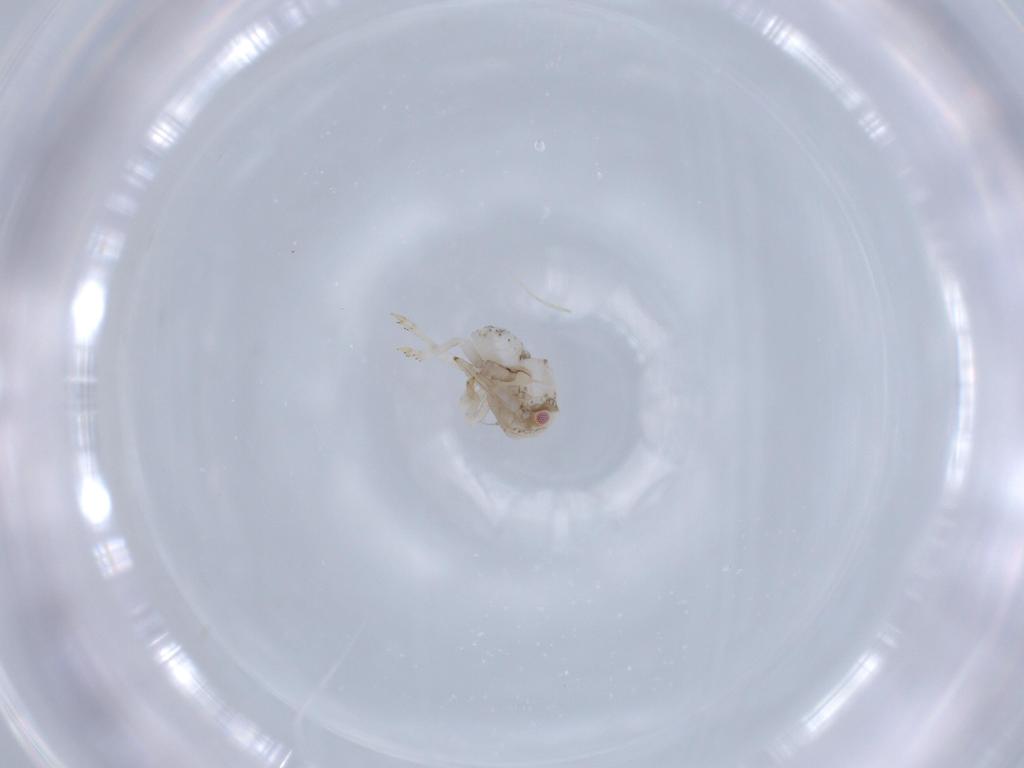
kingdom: Animalia
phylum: Arthropoda
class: Insecta
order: Hemiptera
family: Acanaloniidae
